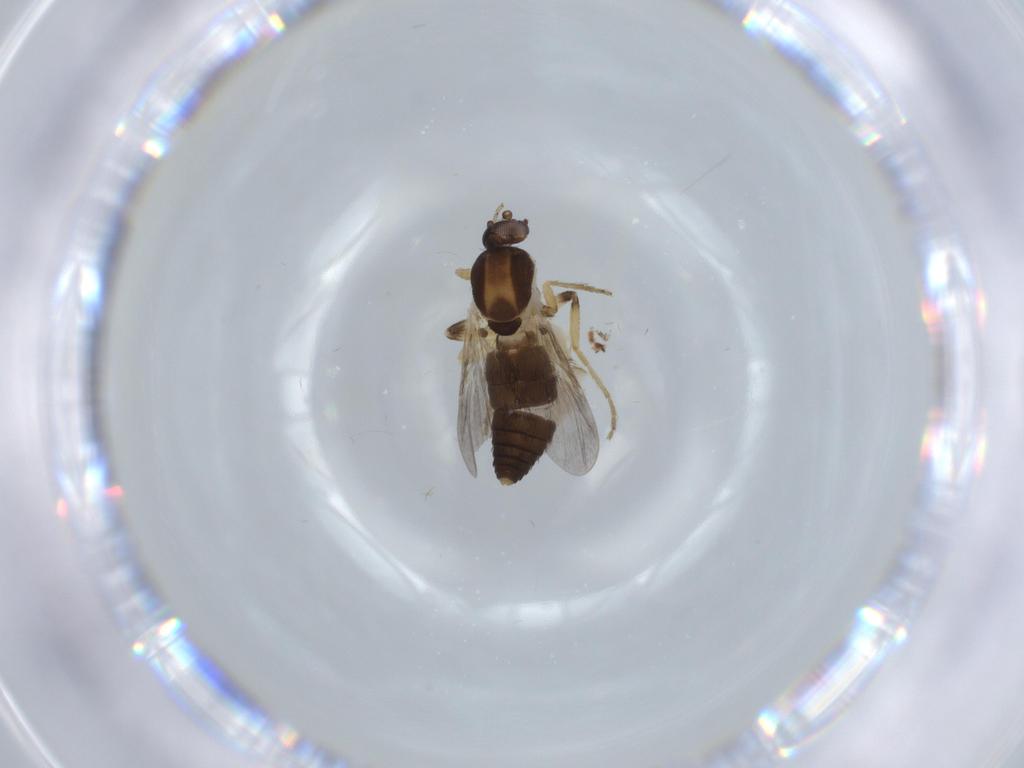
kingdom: Animalia
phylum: Arthropoda
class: Insecta
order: Diptera
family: Ceratopogonidae
